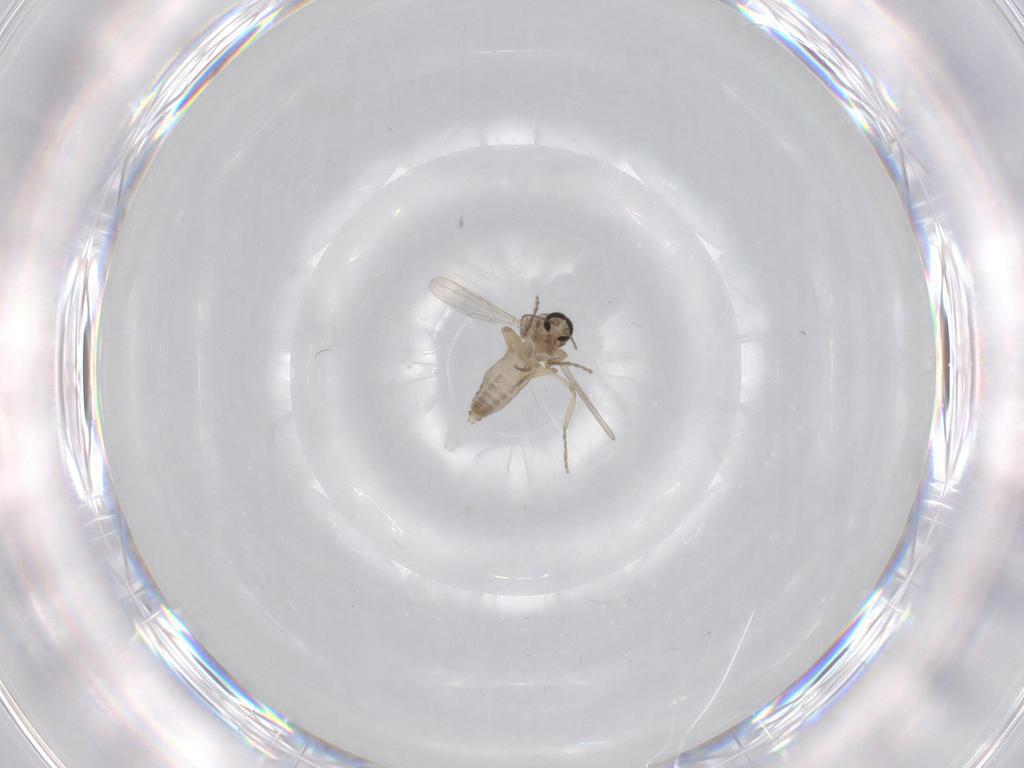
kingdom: Animalia
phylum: Arthropoda
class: Insecta
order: Diptera
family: Ceratopogonidae
